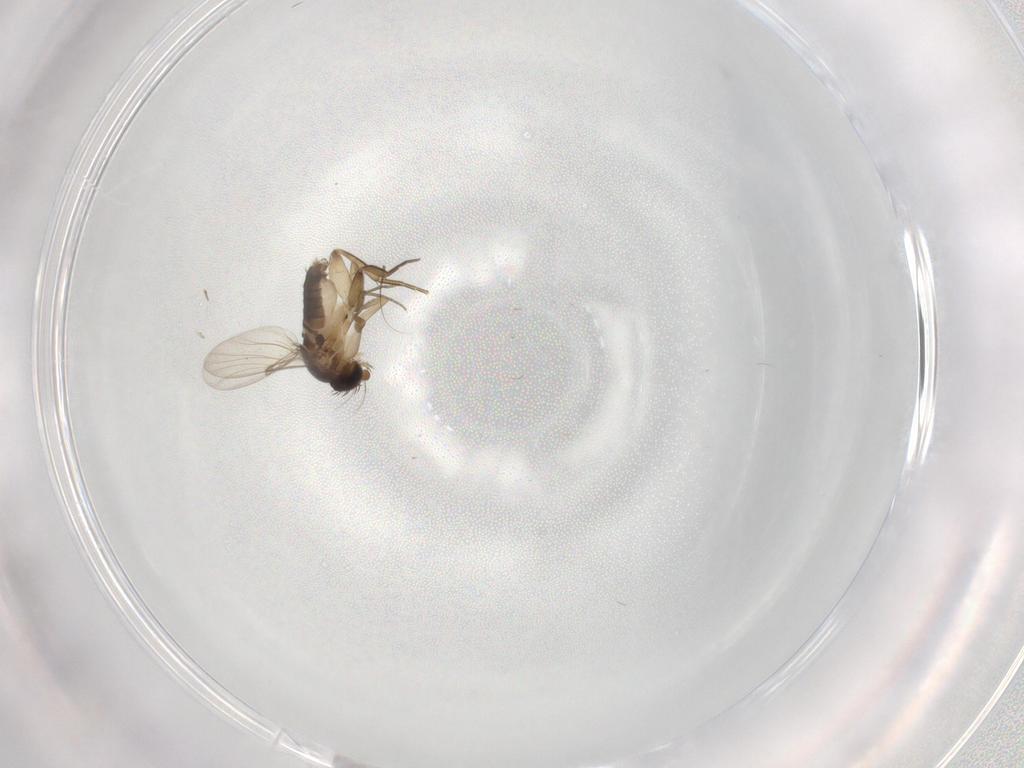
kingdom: Animalia
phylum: Arthropoda
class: Insecta
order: Diptera
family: Phoridae
